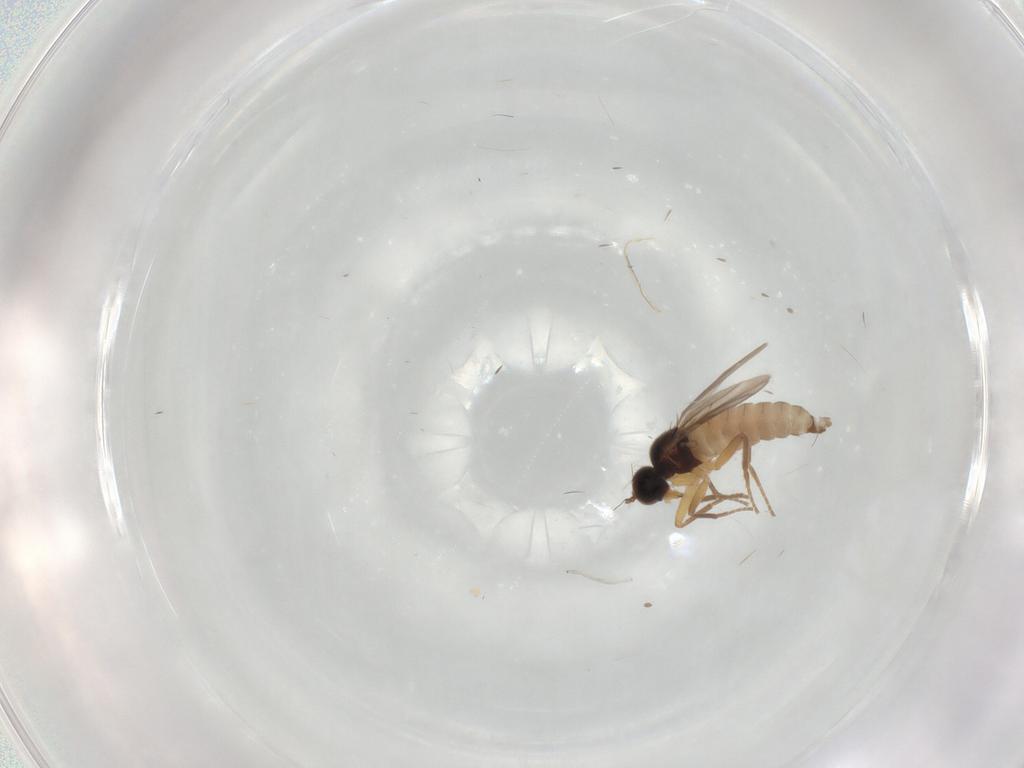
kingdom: Animalia
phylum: Arthropoda
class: Insecta
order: Diptera
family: Hybotidae
